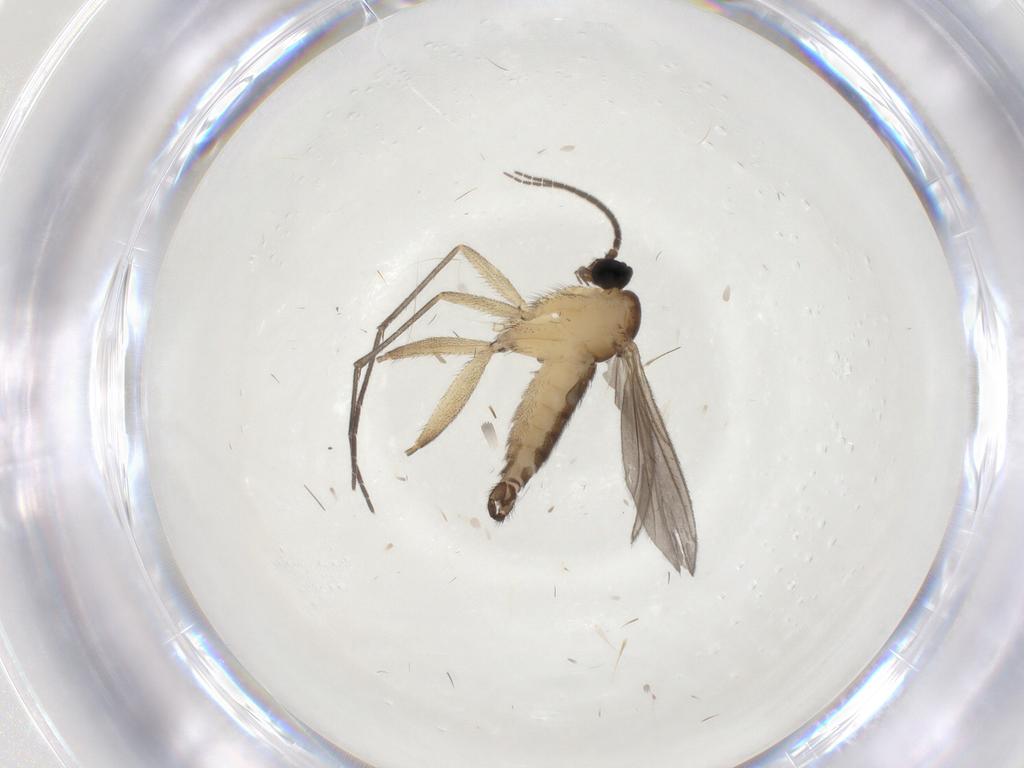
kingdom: Animalia
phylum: Arthropoda
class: Insecta
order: Diptera
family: Sciaridae
